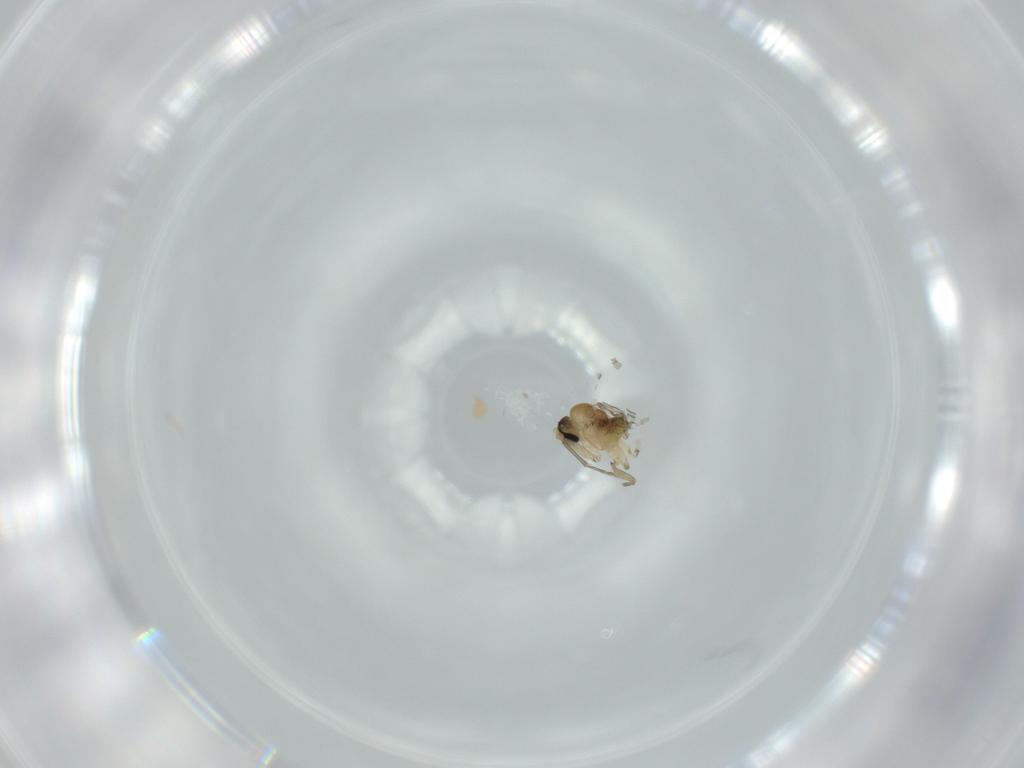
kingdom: Animalia
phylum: Arthropoda
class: Insecta
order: Diptera
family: Sciaridae
